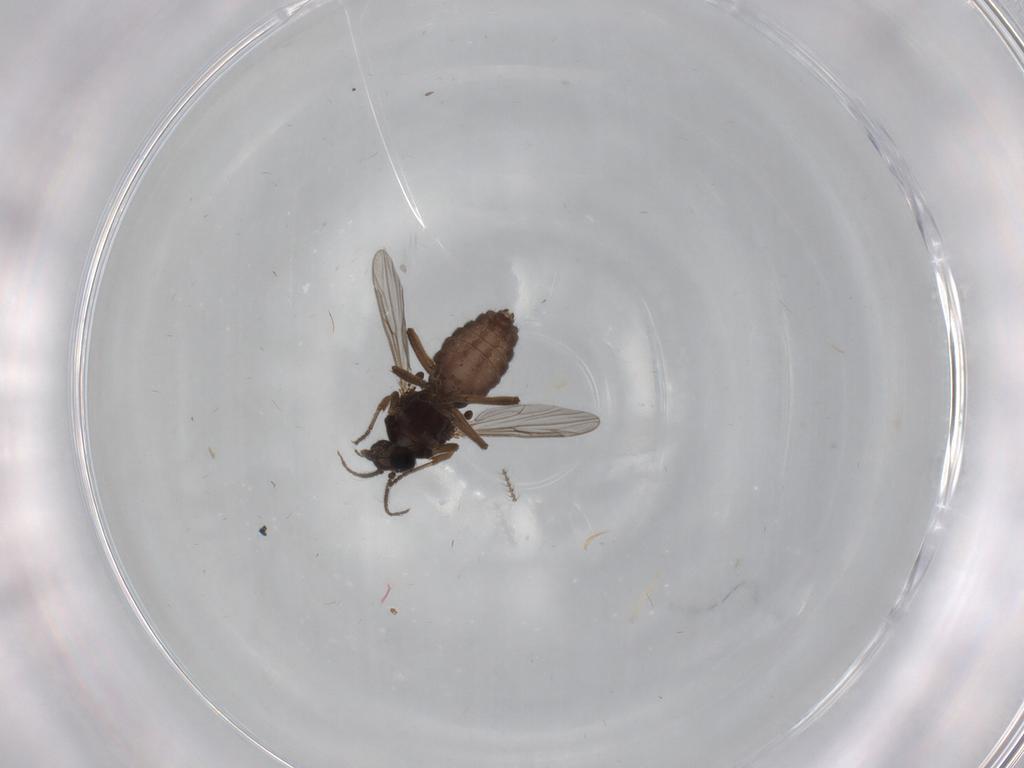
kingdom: Animalia
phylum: Arthropoda
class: Insecta
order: Diptera
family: Ceratopogonidae
